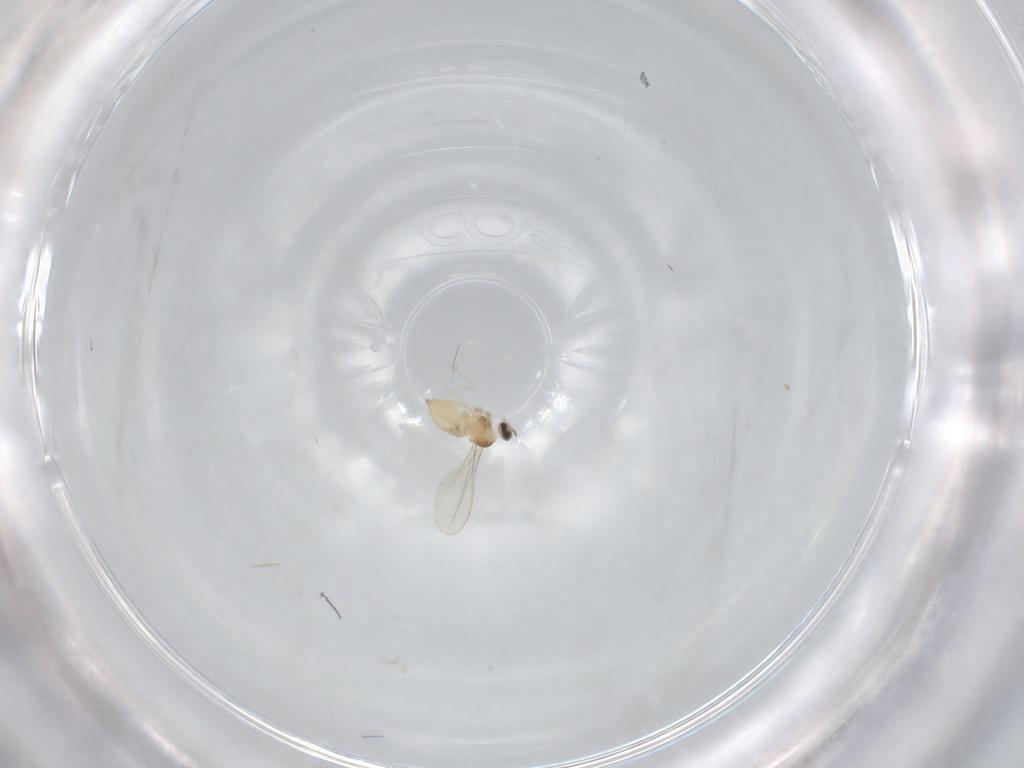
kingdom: Animalia
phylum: Arthropoda
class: Insecta
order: Diptera
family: Cecidomyiidae
